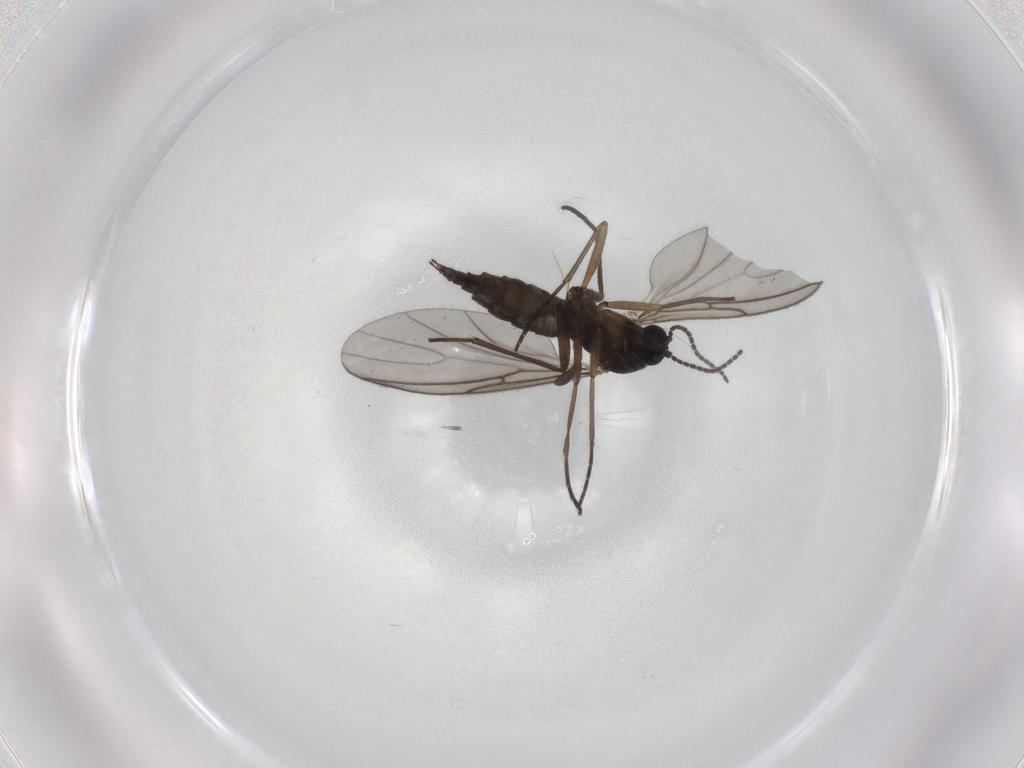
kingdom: Animalia
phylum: Arthropoda
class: Insecta
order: Diptera
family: Sciaridae
